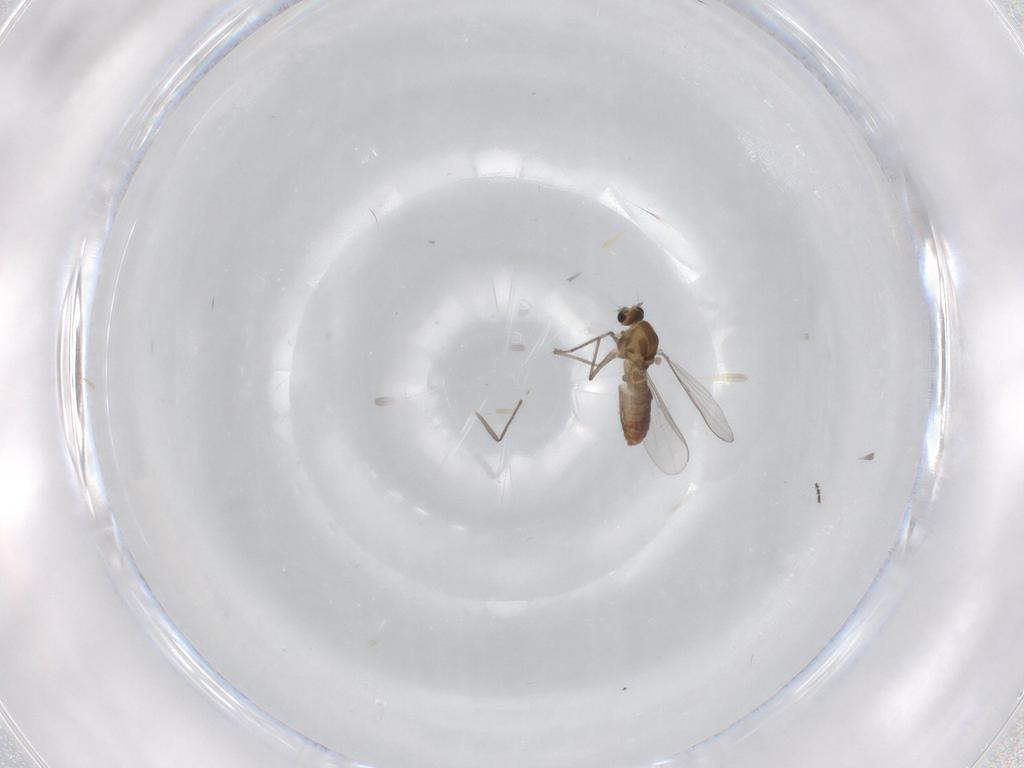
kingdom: Animalia
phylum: Arthropoda
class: Insecta
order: Diptera
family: Chironomidae
